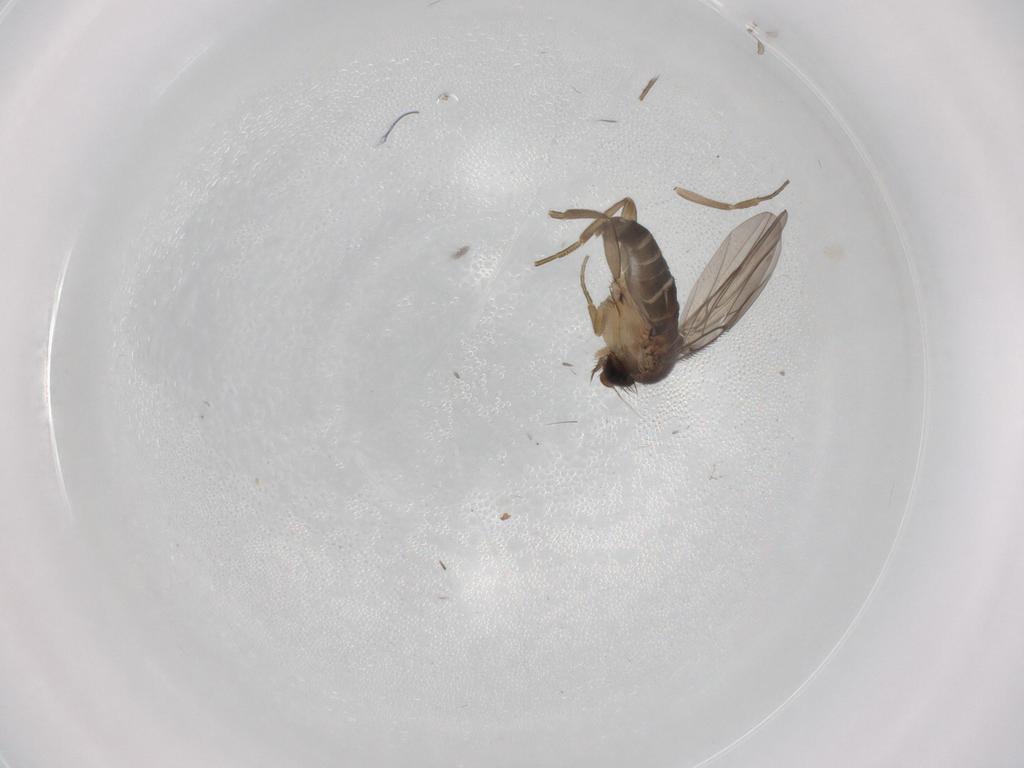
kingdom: Animalia
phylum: Arthropoda
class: Insecta
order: Diptera
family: Phoridae
